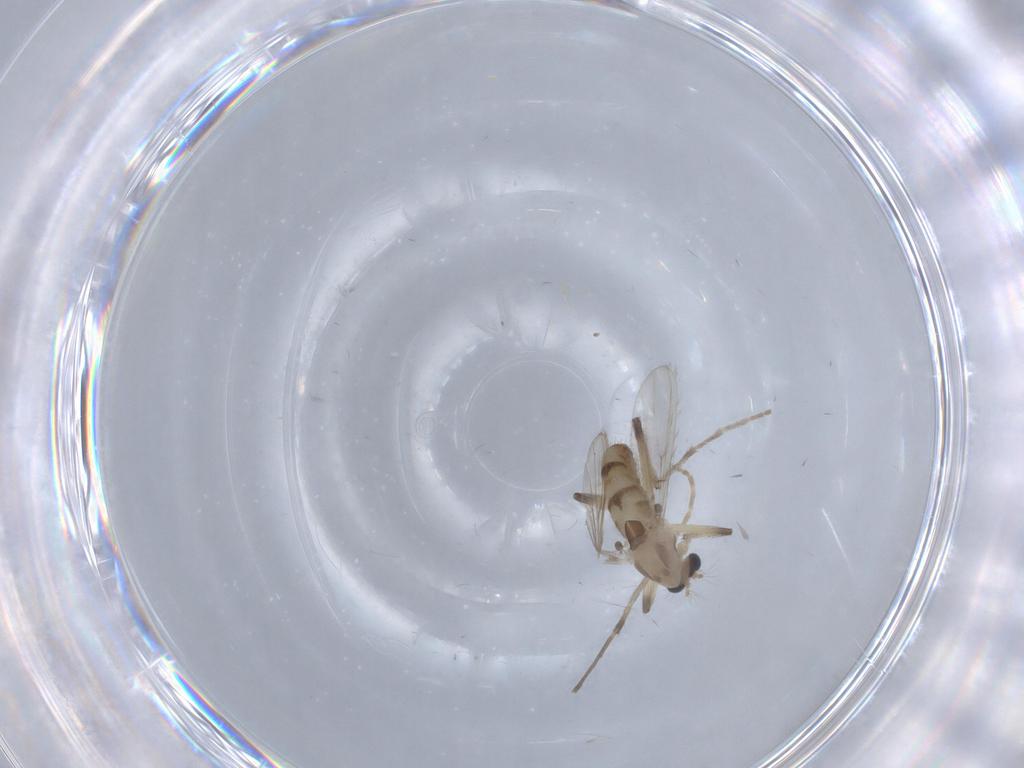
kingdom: Animalia
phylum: Arthropoda
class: Insecta
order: Diptera
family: Chironomidae
